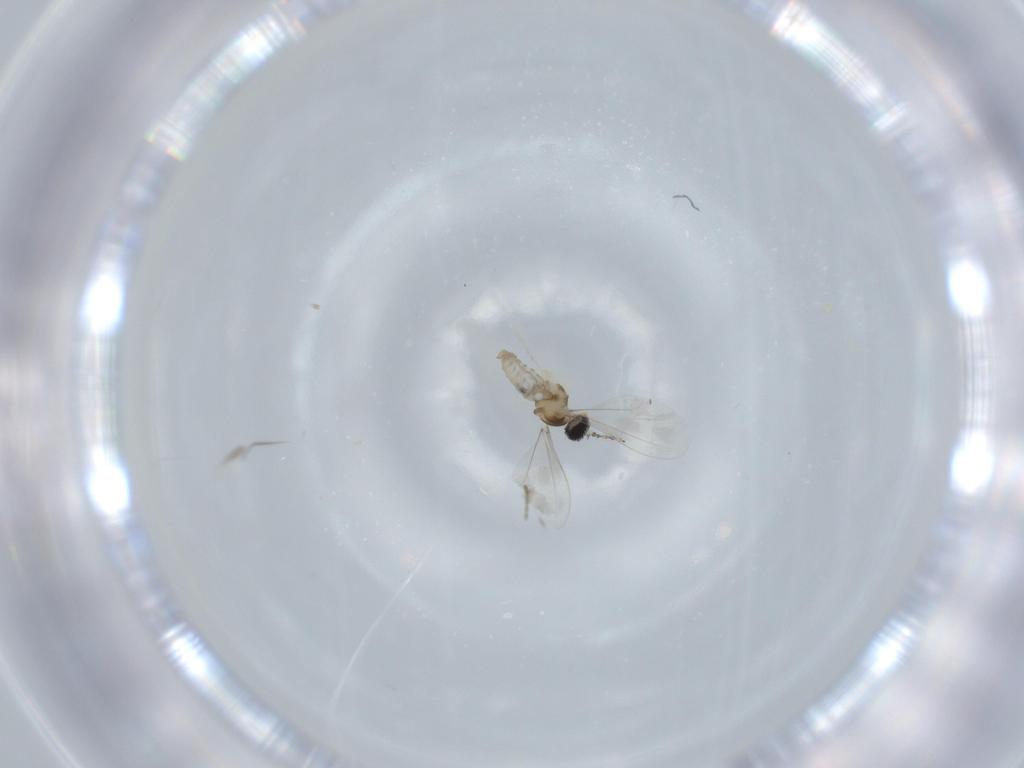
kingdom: Animalia
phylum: Arthropoda
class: Insecta
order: Diptera
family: Cecidomyiidae
